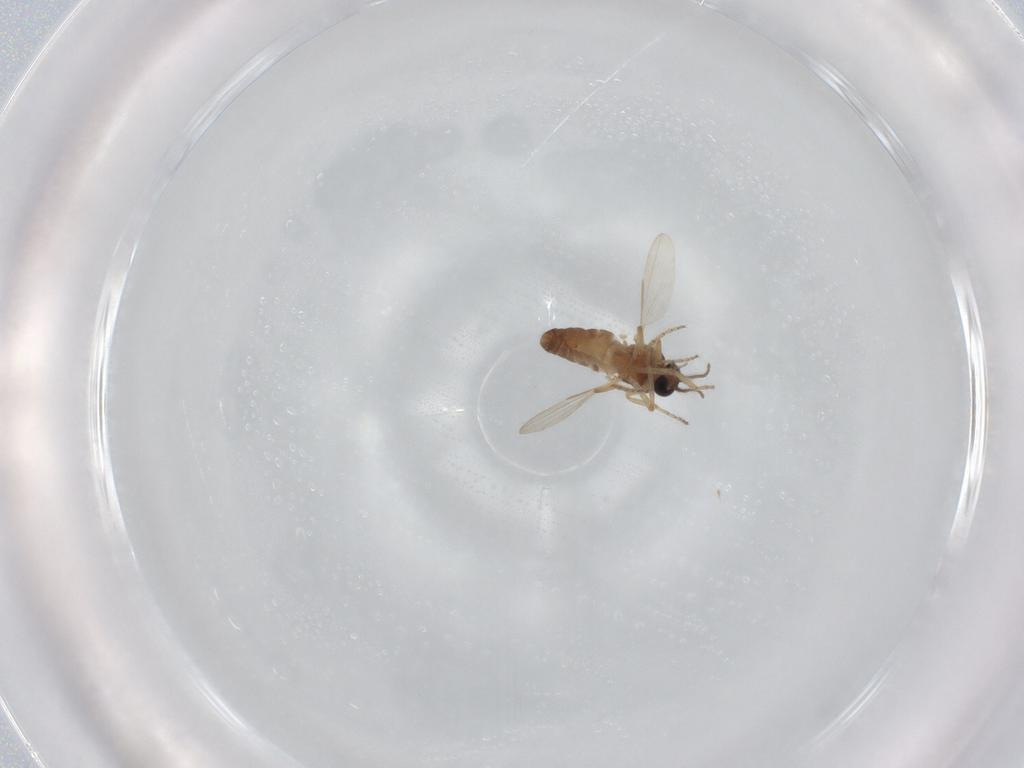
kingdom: Animalia
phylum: Arthropoda
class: Insecta
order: Diptera
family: Ceratopogonidae
